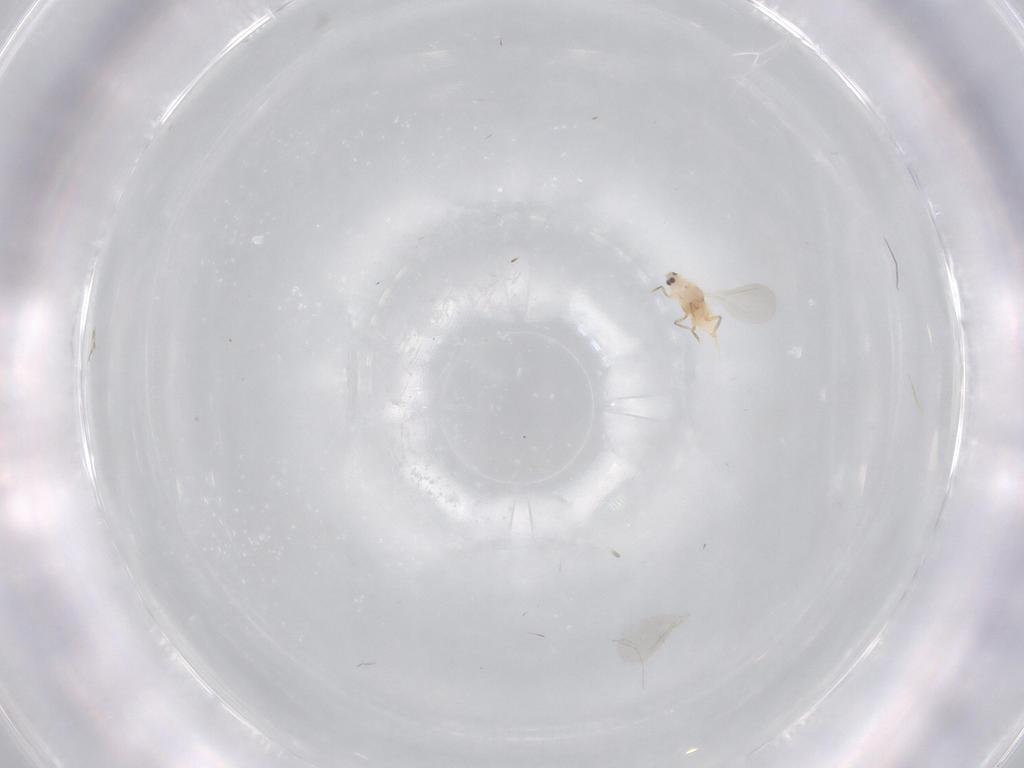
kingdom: Animalia
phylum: Arthropoda
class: Insecta
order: Hemiptera
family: Diaspididae
